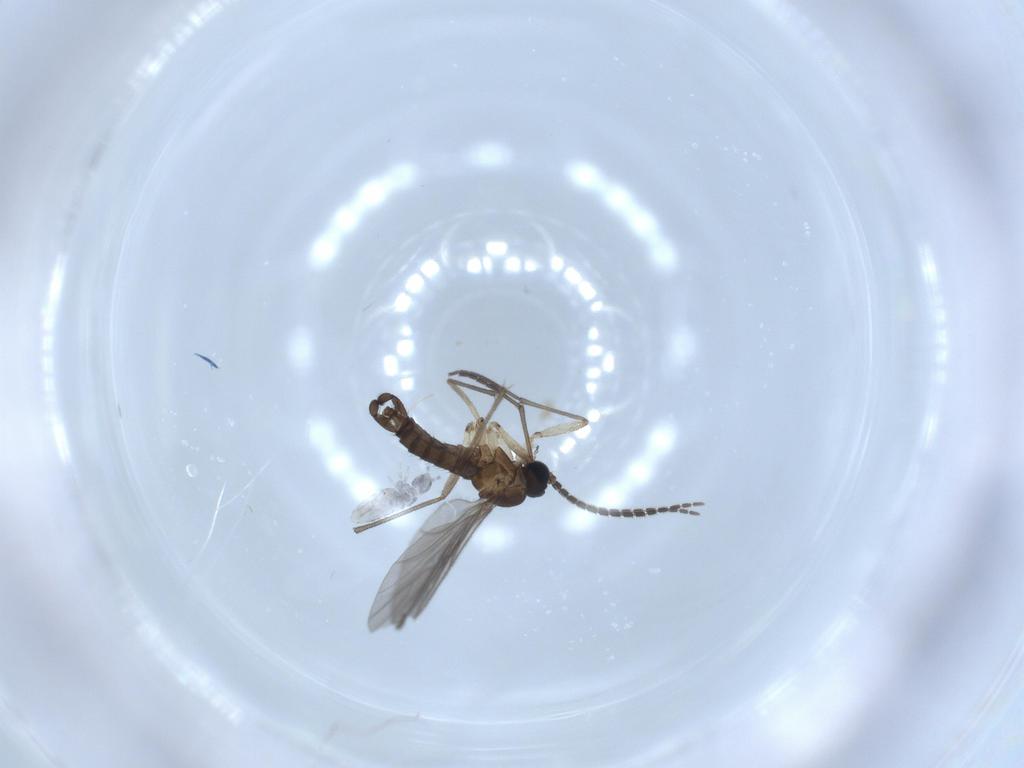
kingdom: Animalia
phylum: Arthropoda
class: Insecta
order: Diptera
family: Sciaridae
